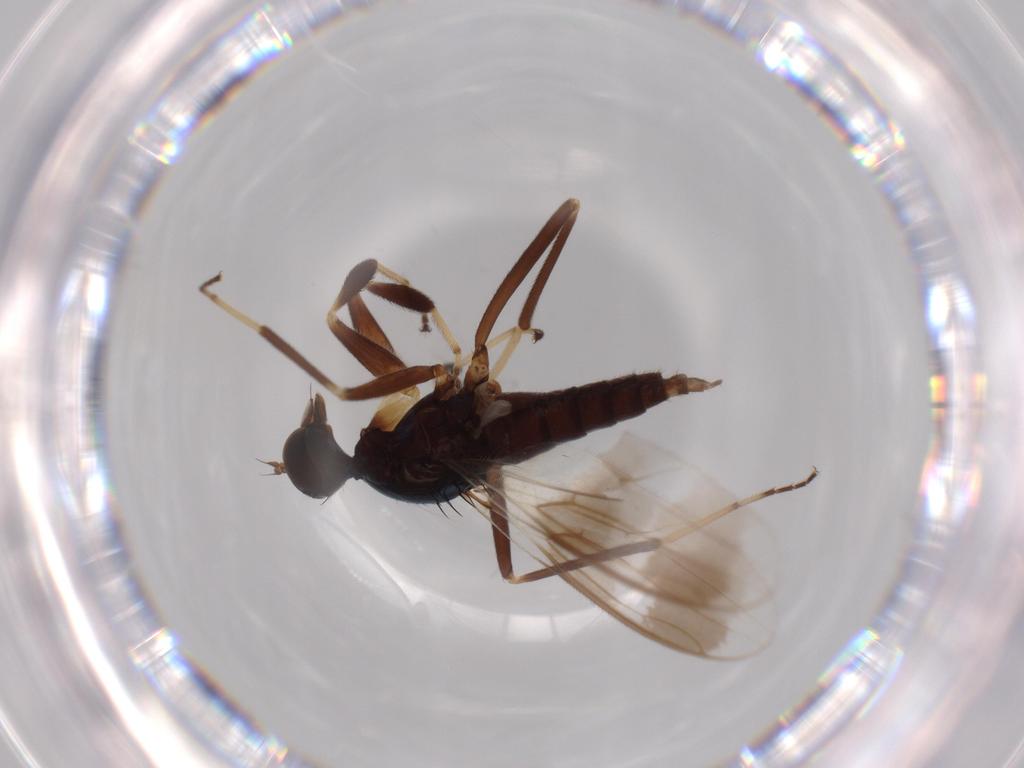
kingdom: Animalia
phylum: Arthropoda
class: Insecta
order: Diptera
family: Hybotidae
